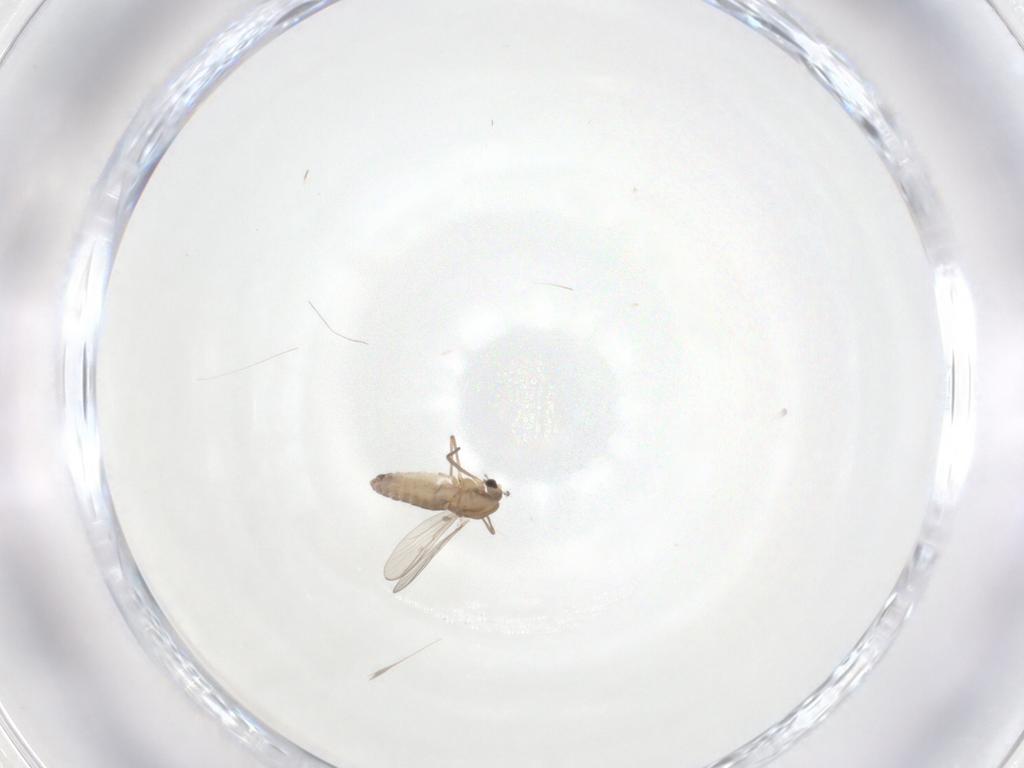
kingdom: Animalia
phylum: Arthropoda
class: Insecta
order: Diptera
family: Chironomidae
